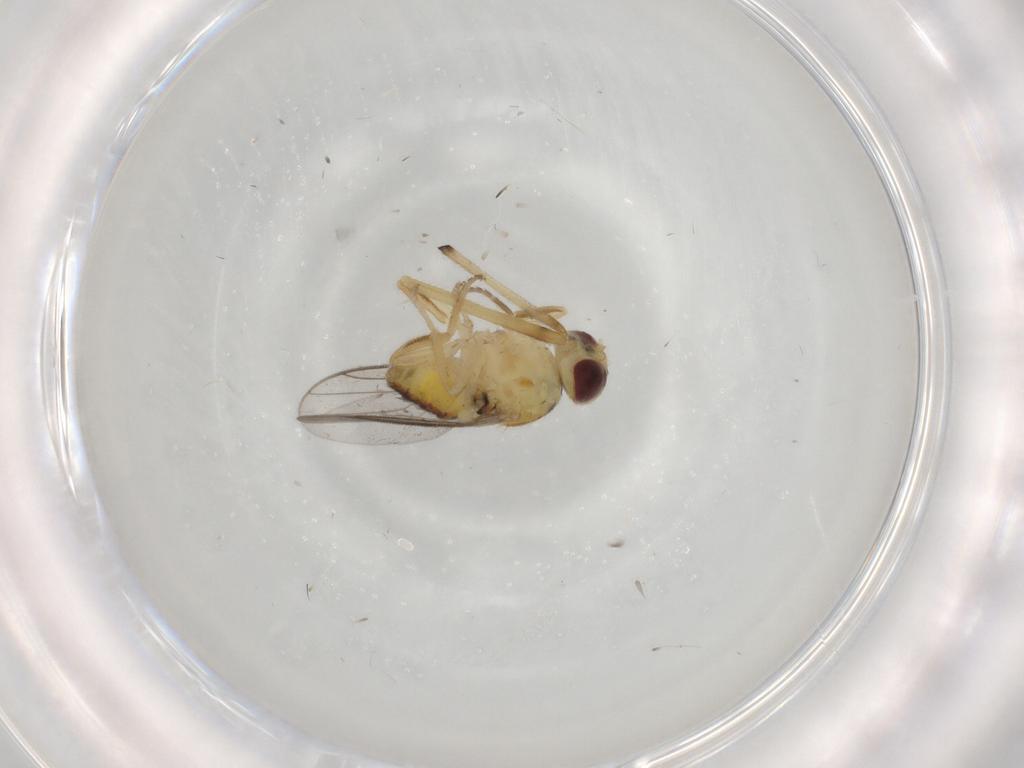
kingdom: Animalia
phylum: Arthropoda
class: Insecta
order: Diptera
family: Chloropidae
